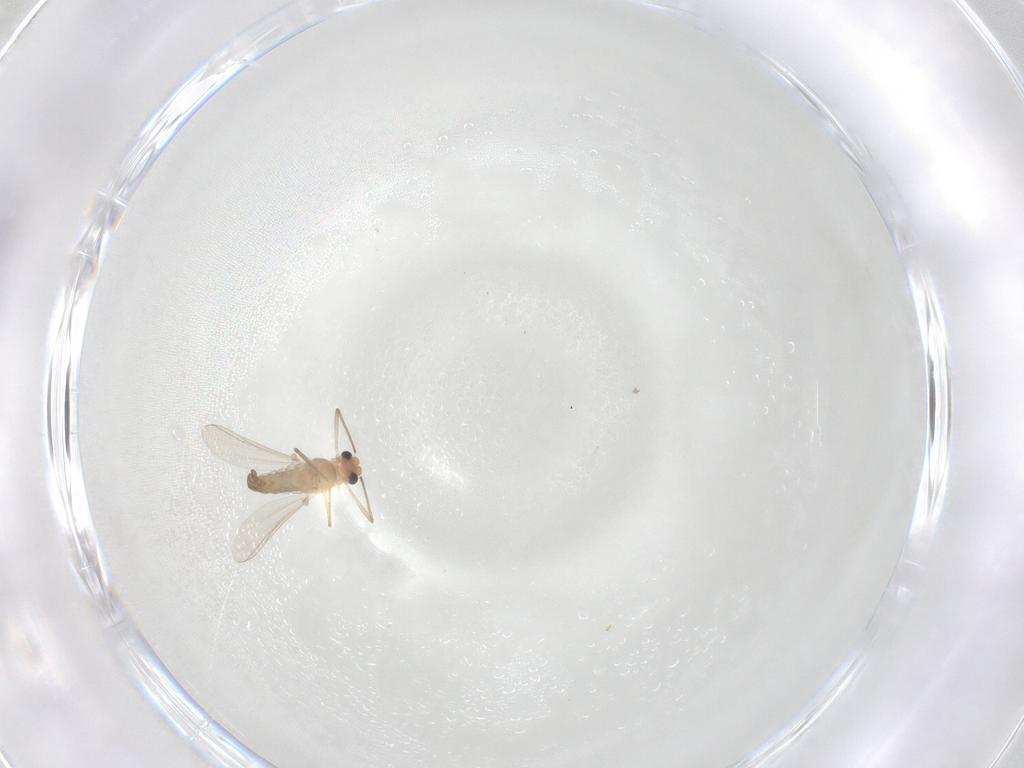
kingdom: Animalia
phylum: Arthropoda
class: Insecta
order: Diptera
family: Chironomidae
